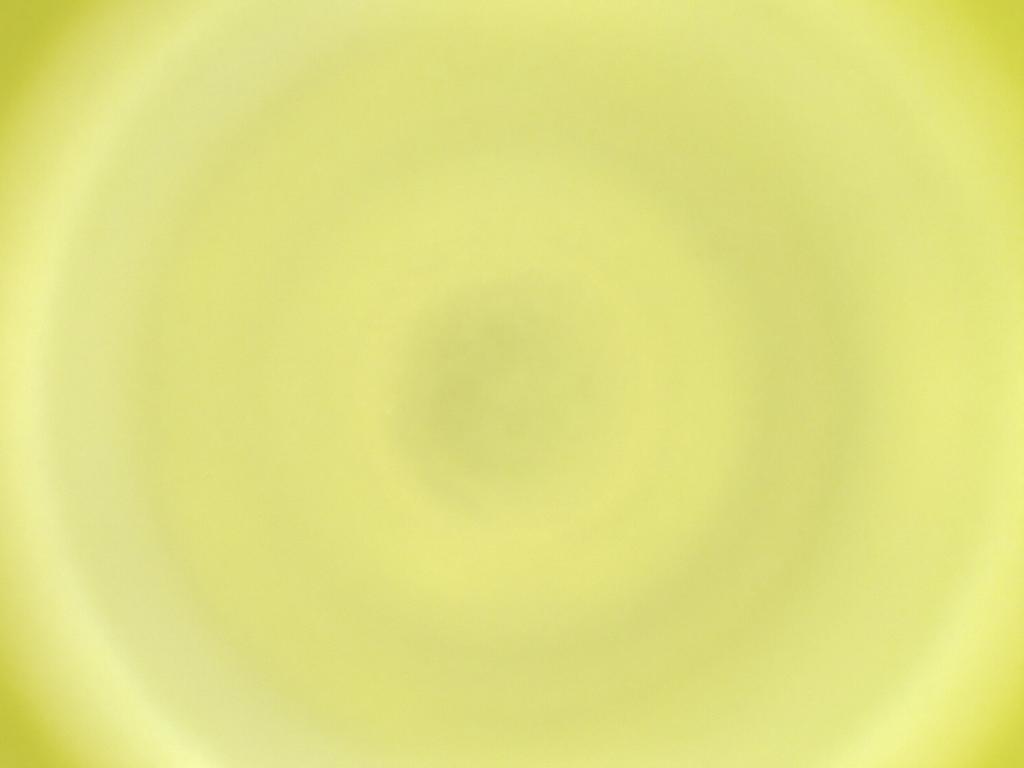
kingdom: Animalia
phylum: Arthropoda
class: Insecta
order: Diptera
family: Cecidomyiidae
